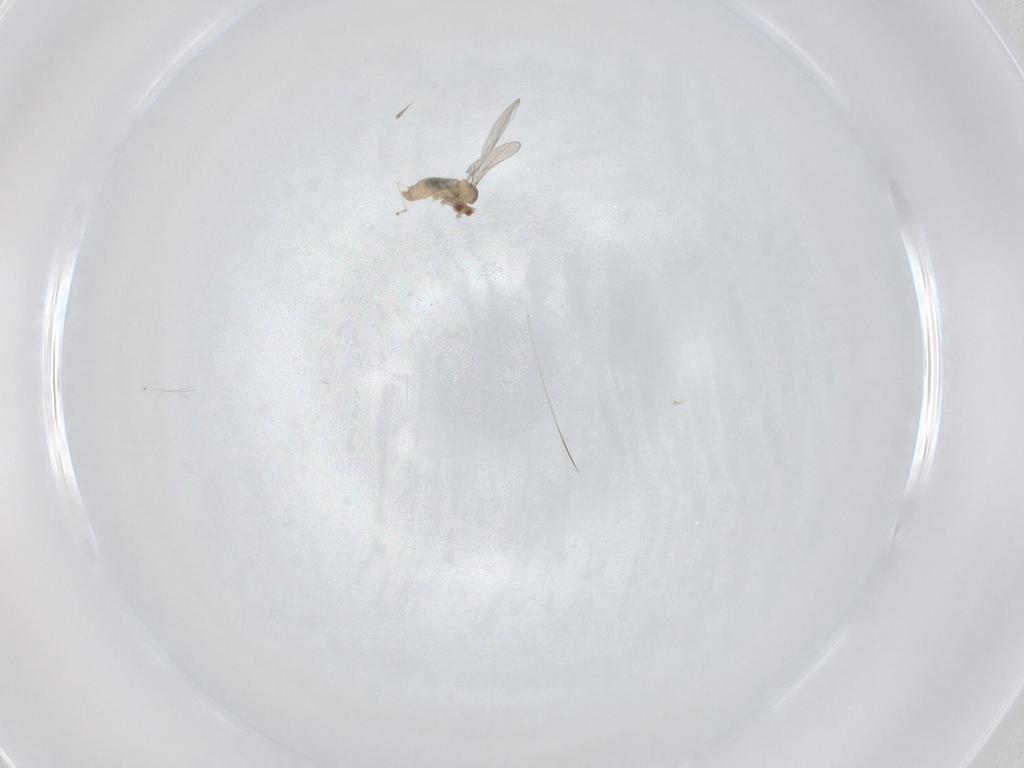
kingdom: Animalia
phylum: Arthropoda
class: Insecta
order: Diptera
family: Cecidomyiidae
